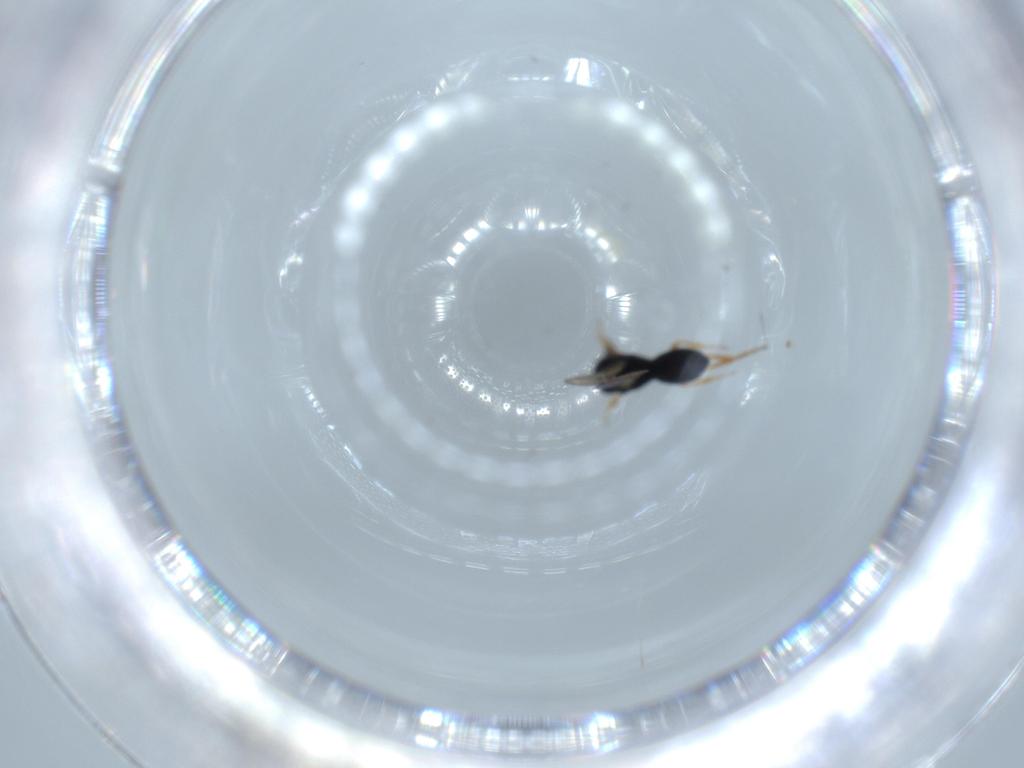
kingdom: Animalia
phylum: Arthropoda
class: Insecta
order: Hymenoptera
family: Scelionidae
